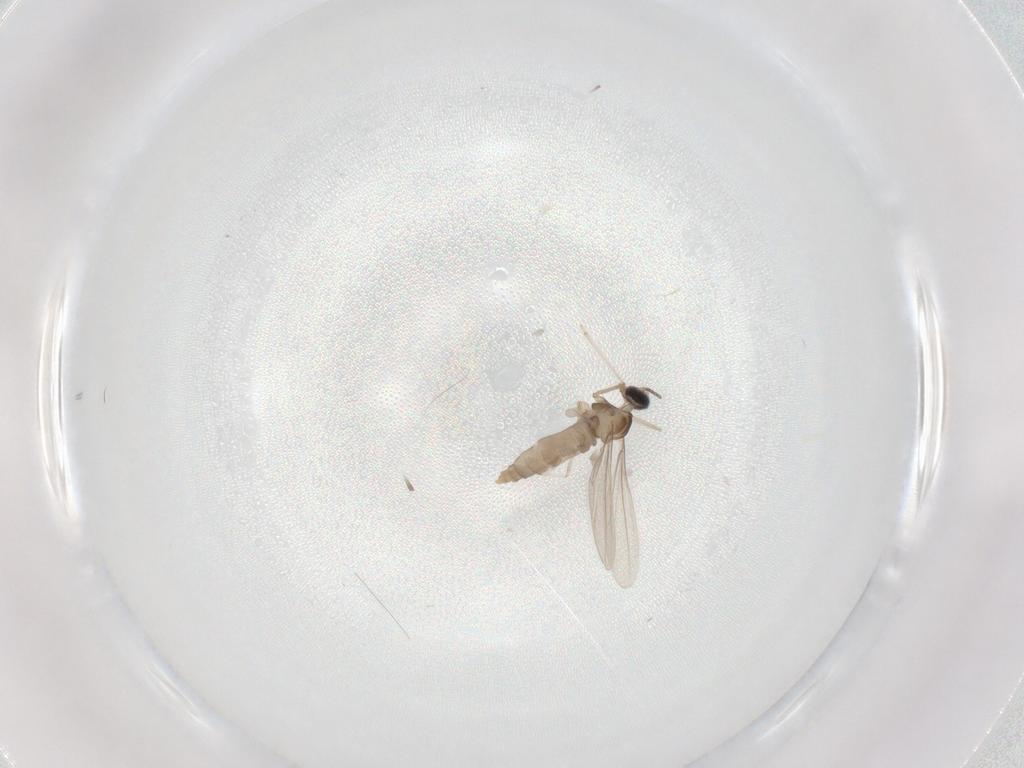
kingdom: Animalia
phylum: Arthropoda
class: Insecta
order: Diptera
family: Cecidomyiidae
